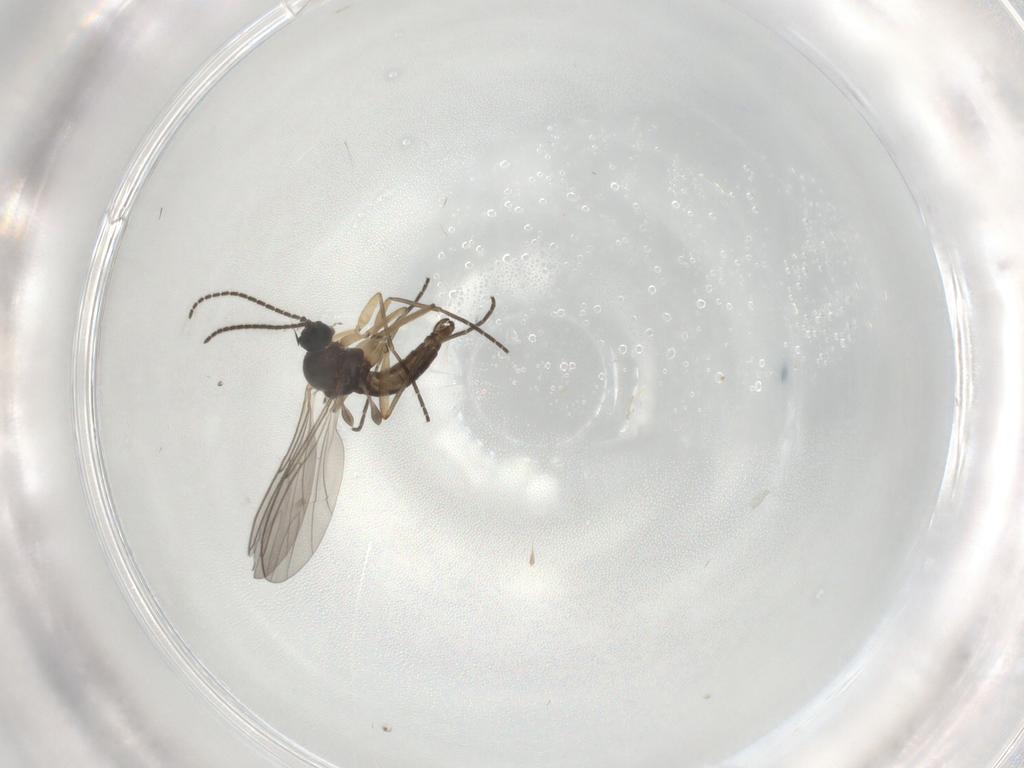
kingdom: Animalia
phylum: Arthropoda
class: Insecta
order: Diptera
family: Sciaridae
